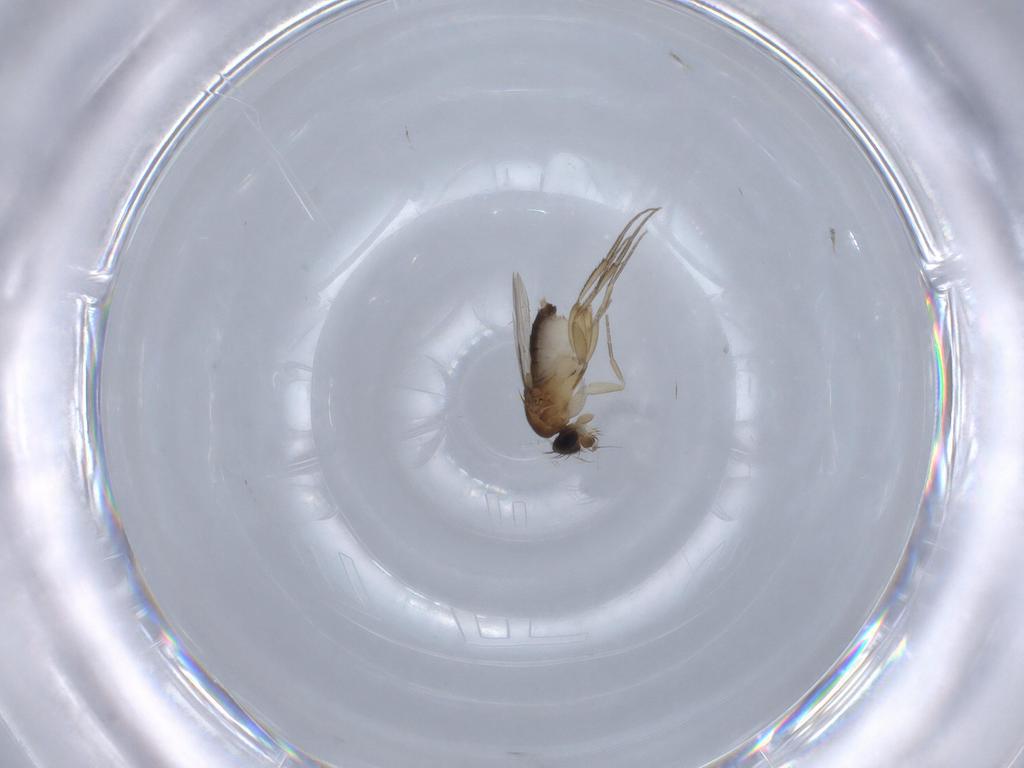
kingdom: Animalia
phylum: Arthropoda
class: Insecta
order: Diptera
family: Phoridae
